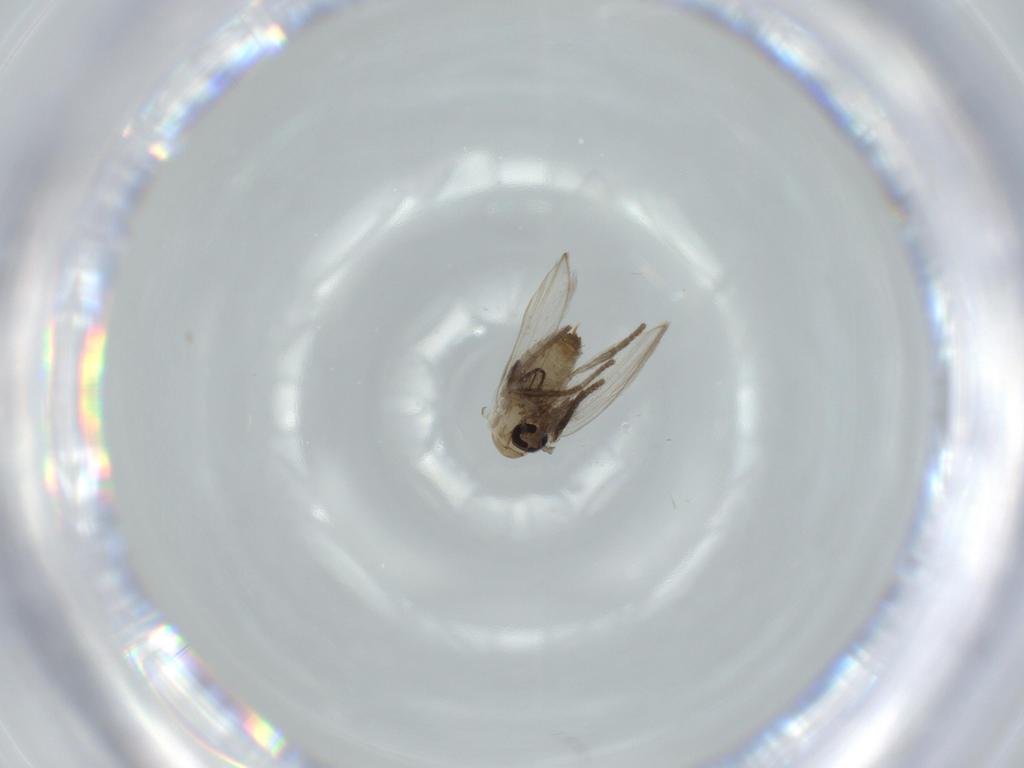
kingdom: Animalia
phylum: Arthropoda
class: Insecta
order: Diptera
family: Psychodidae
